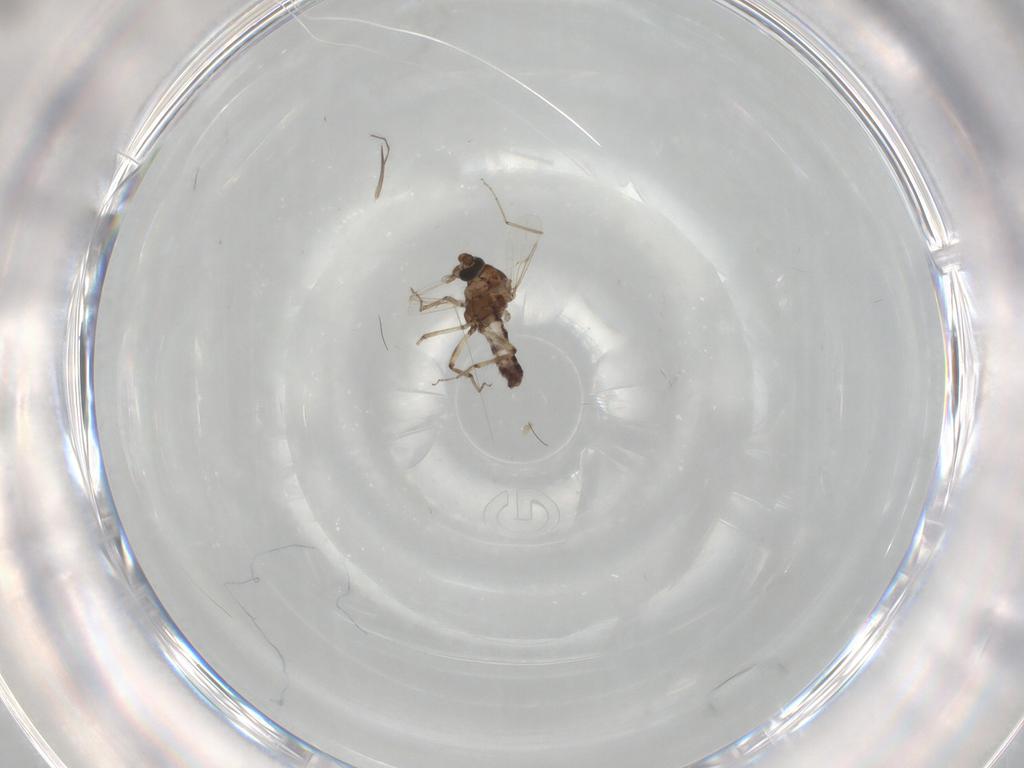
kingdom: Animalia
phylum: Arthropoda
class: Insecta
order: Diptera
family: Ceratopogonidae
